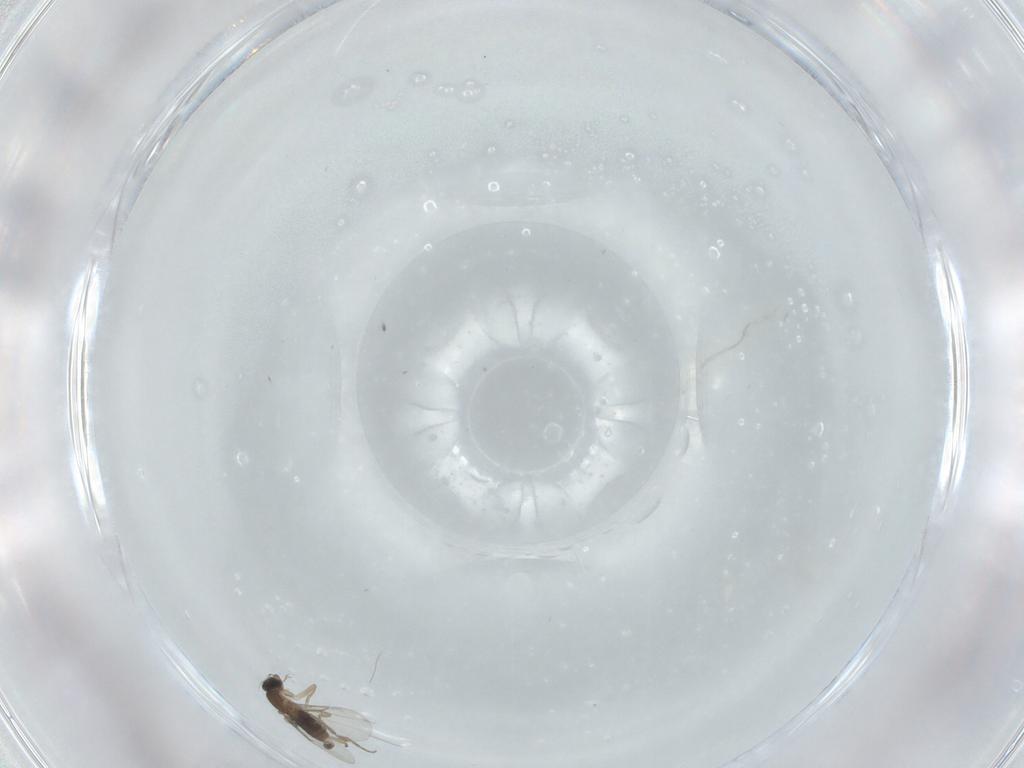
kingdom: Animalia
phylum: Arthropoda
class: Insecta
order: Diptera
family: Phoridae
